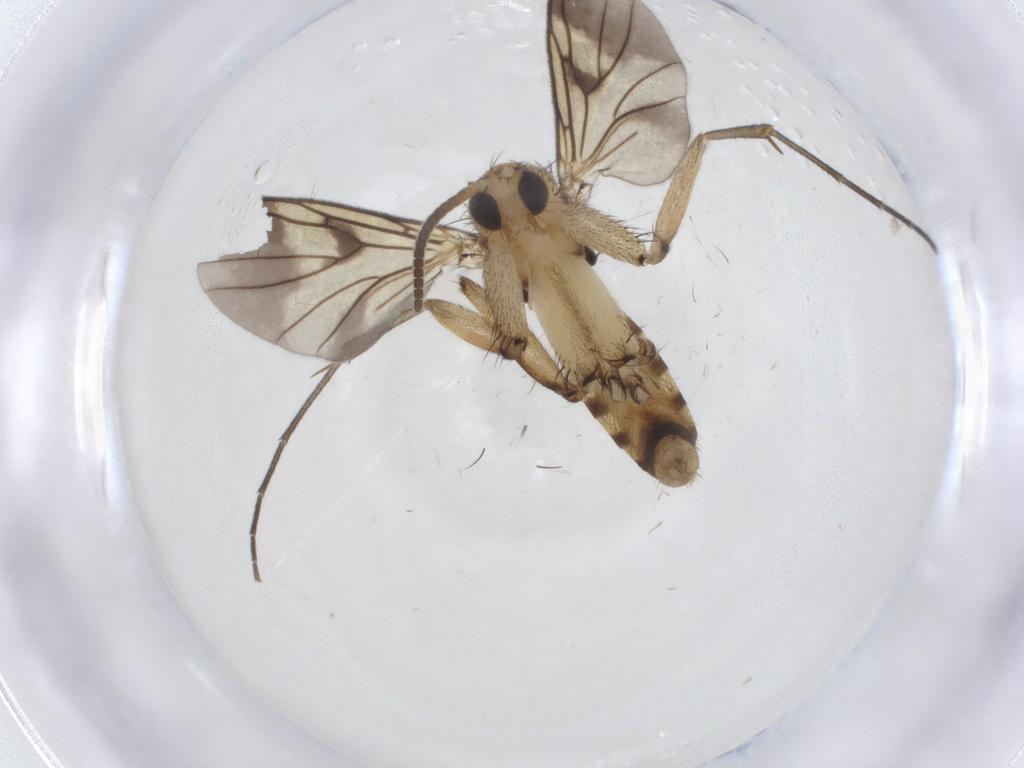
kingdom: Animalia
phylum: Arthropoda
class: Insecta
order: Diptera
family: Mycetophilidae
